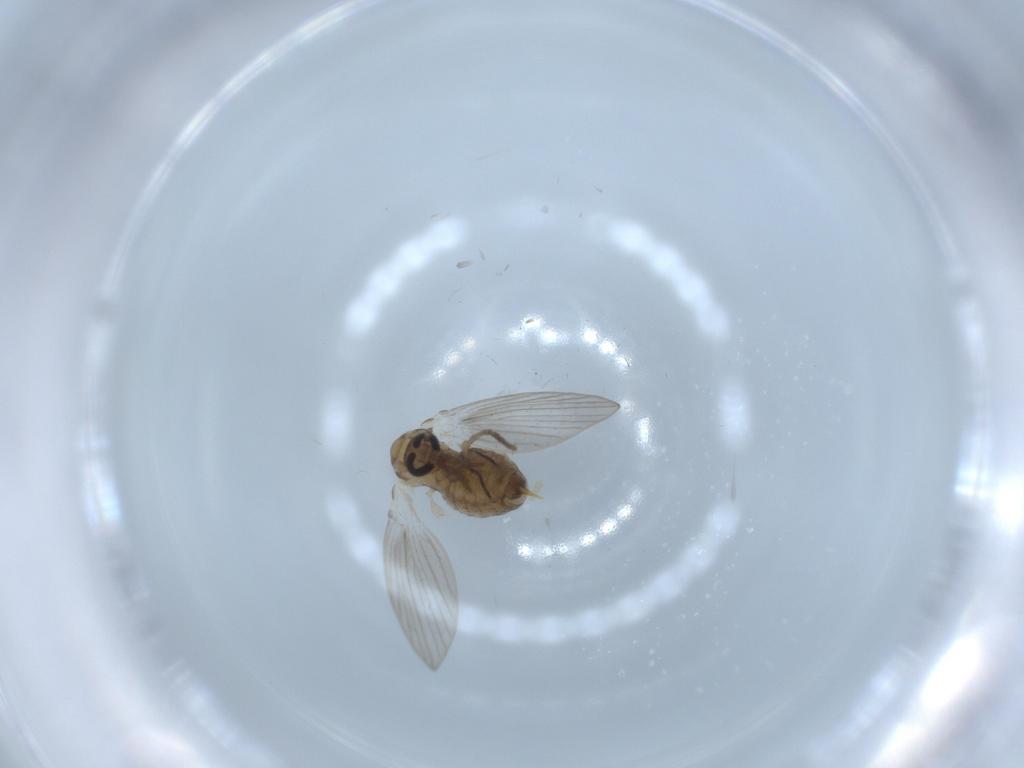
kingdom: Animalia
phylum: Arthropoda
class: Insecta
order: Diptera
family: Psychodidae
